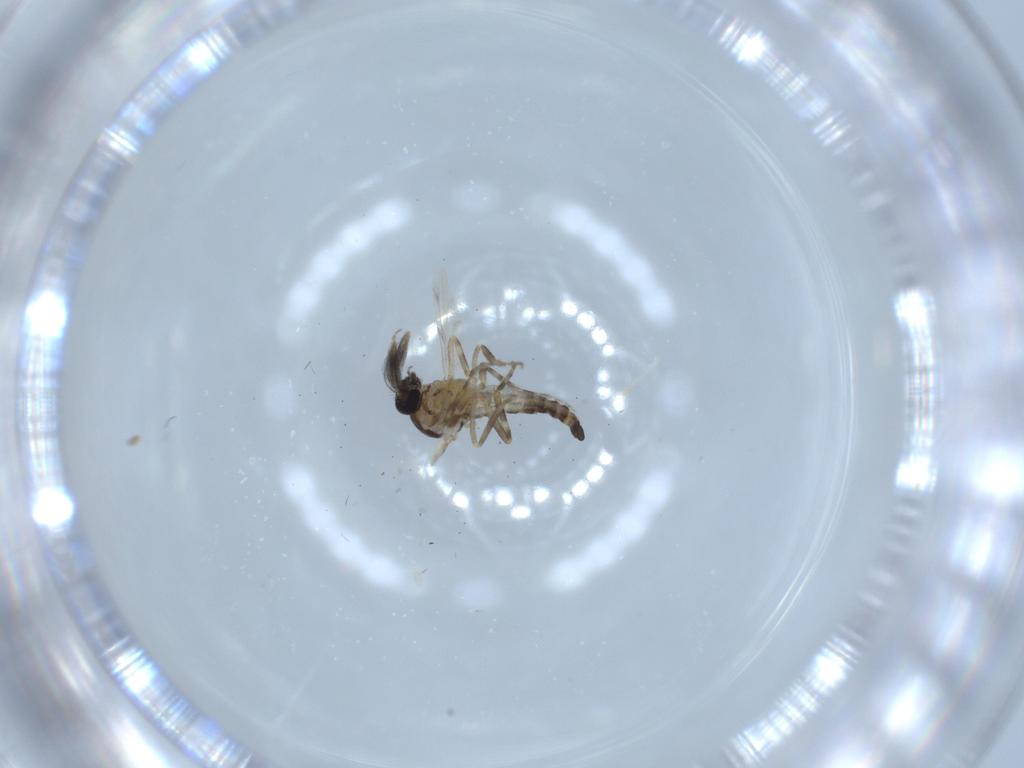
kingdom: Animalia
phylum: Arthropoda
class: Insecta
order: Diptera
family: Ceratopogonidae
